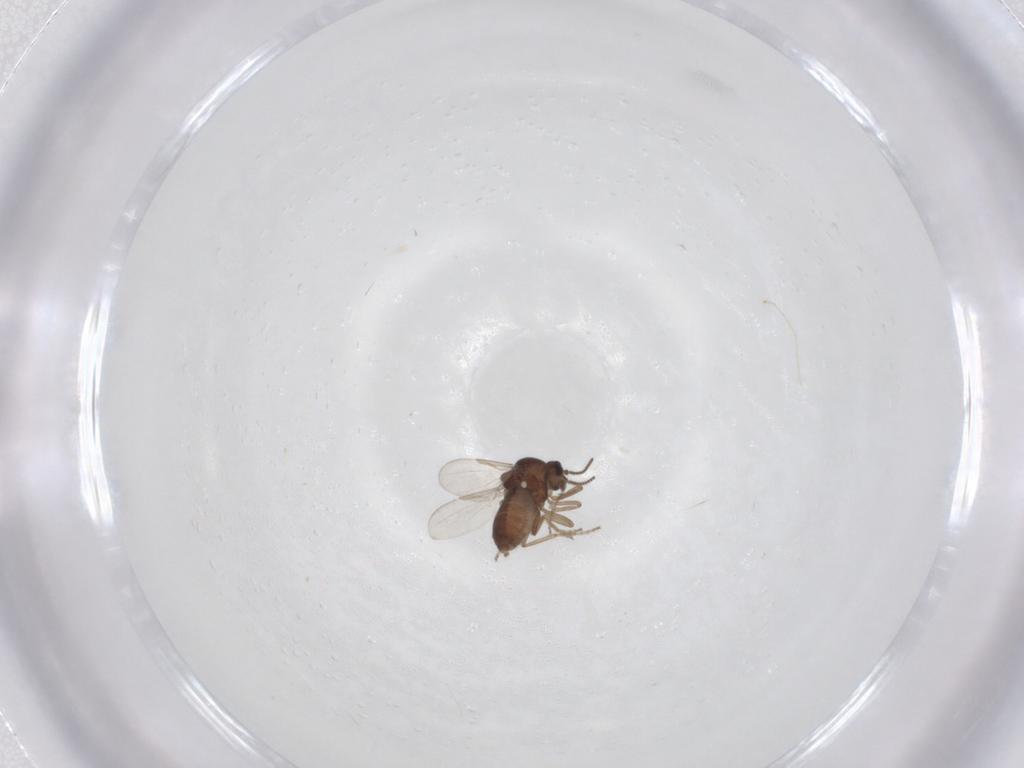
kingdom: Animalia
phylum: Arthropoda
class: Insecta
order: Diptera
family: Ceratopogonidae
